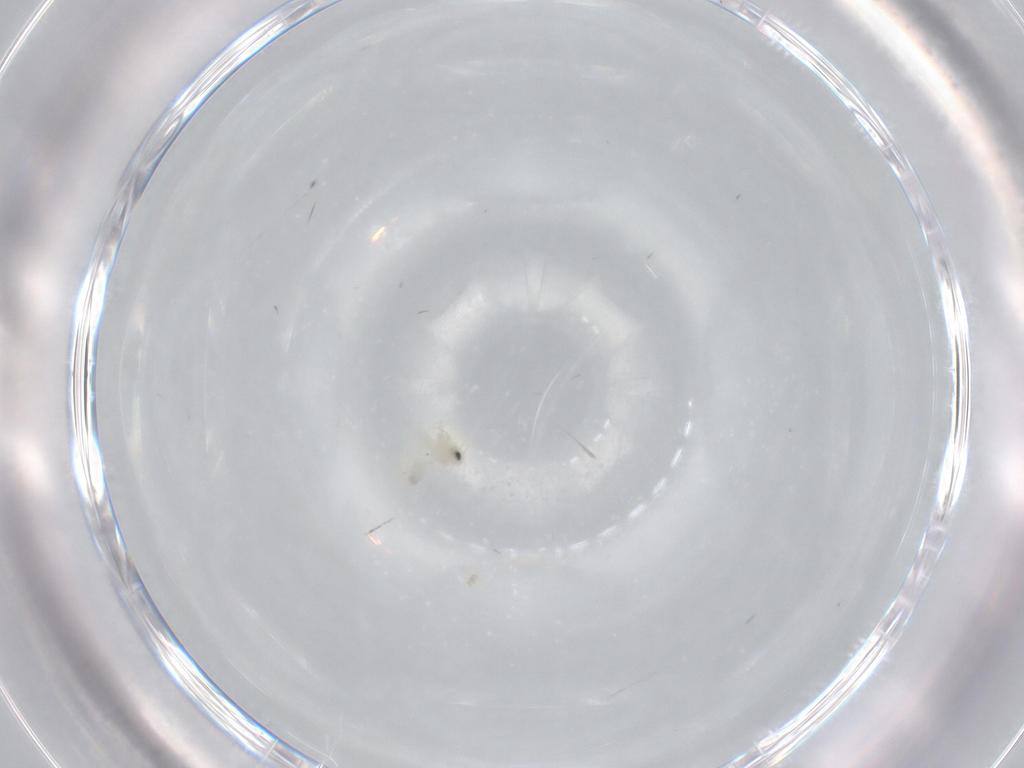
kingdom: Animalia
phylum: Arthropoda
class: Insecta
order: Hemiptera
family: Aleyrodidae
